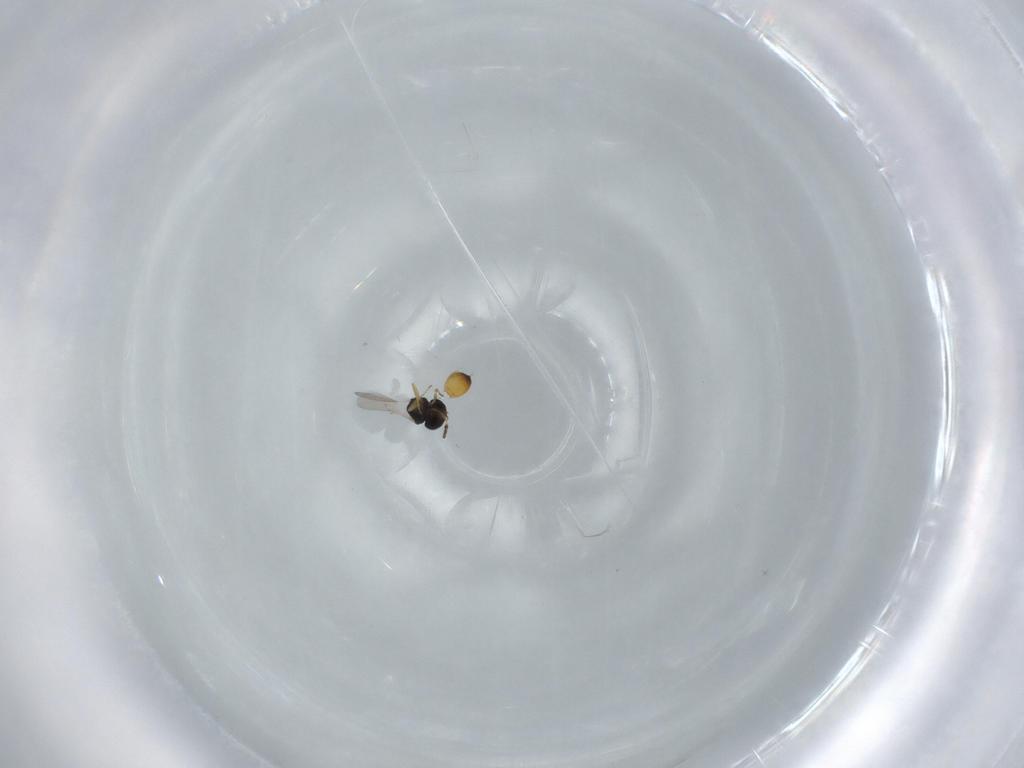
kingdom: Animalia
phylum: Arthropoda
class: Insecta
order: Hymenoptera
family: Scelionidae
